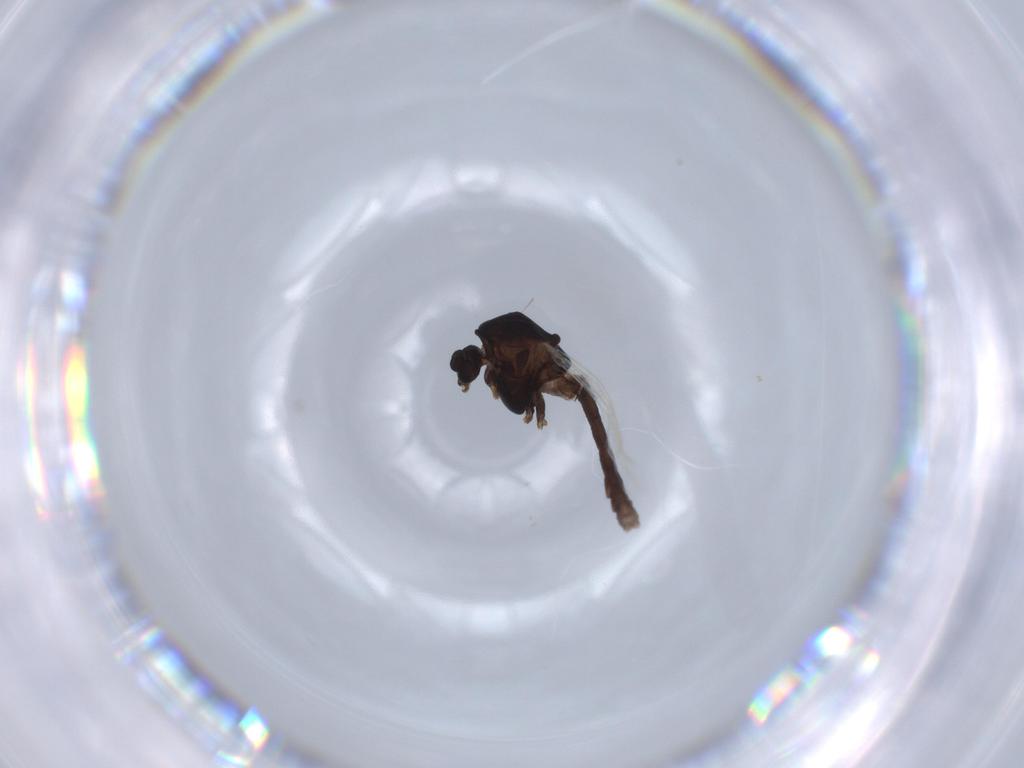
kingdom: Animalia
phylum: Arthropoda
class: Insecta
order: Diptera
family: Chironomidae
